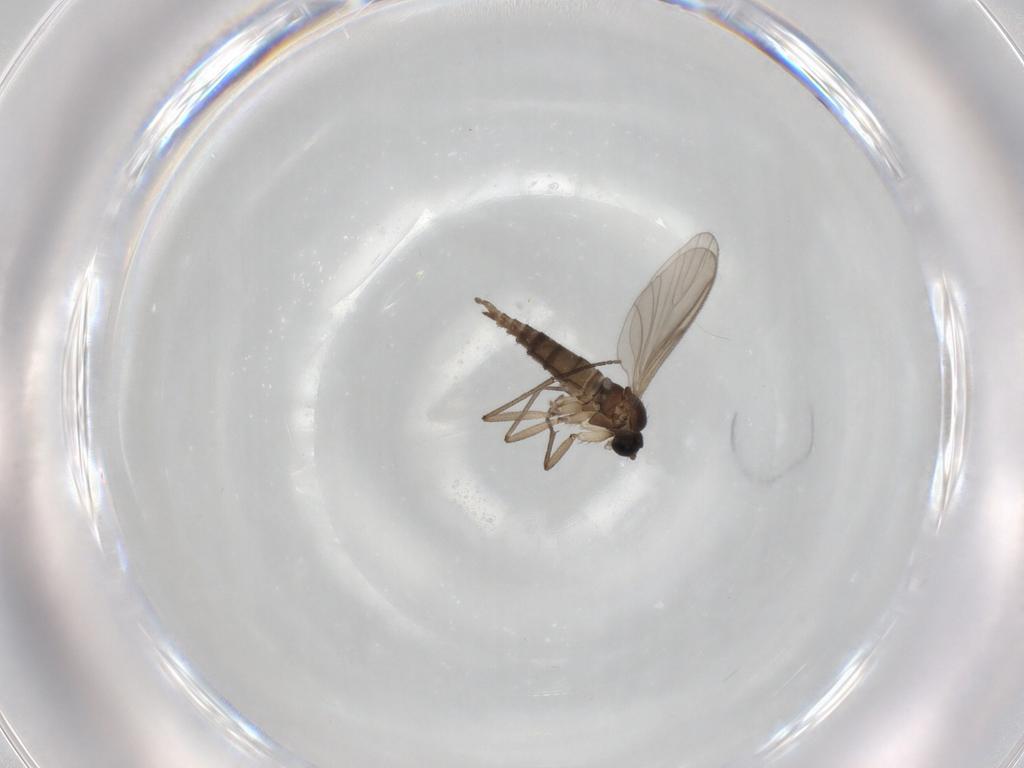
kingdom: Animalia
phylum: Arthropoda
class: Insecta
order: Diptera
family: Sciaridae
